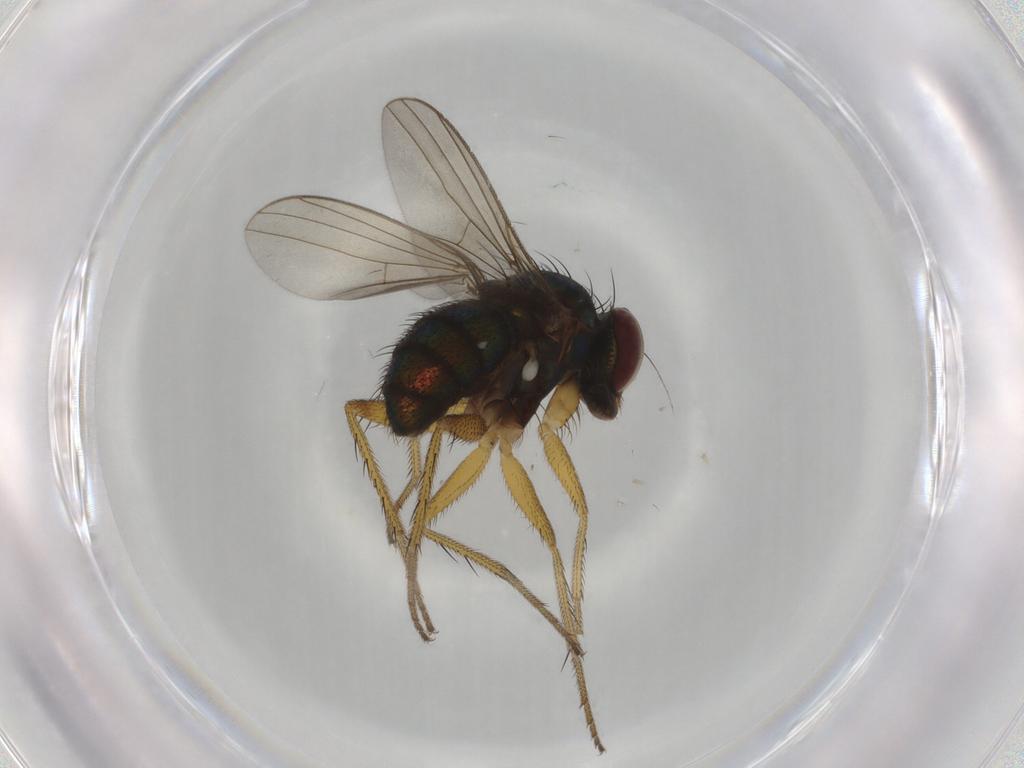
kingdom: Animalia
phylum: Arthropoda
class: Insecta
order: Diptera
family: Dolichopodidae
